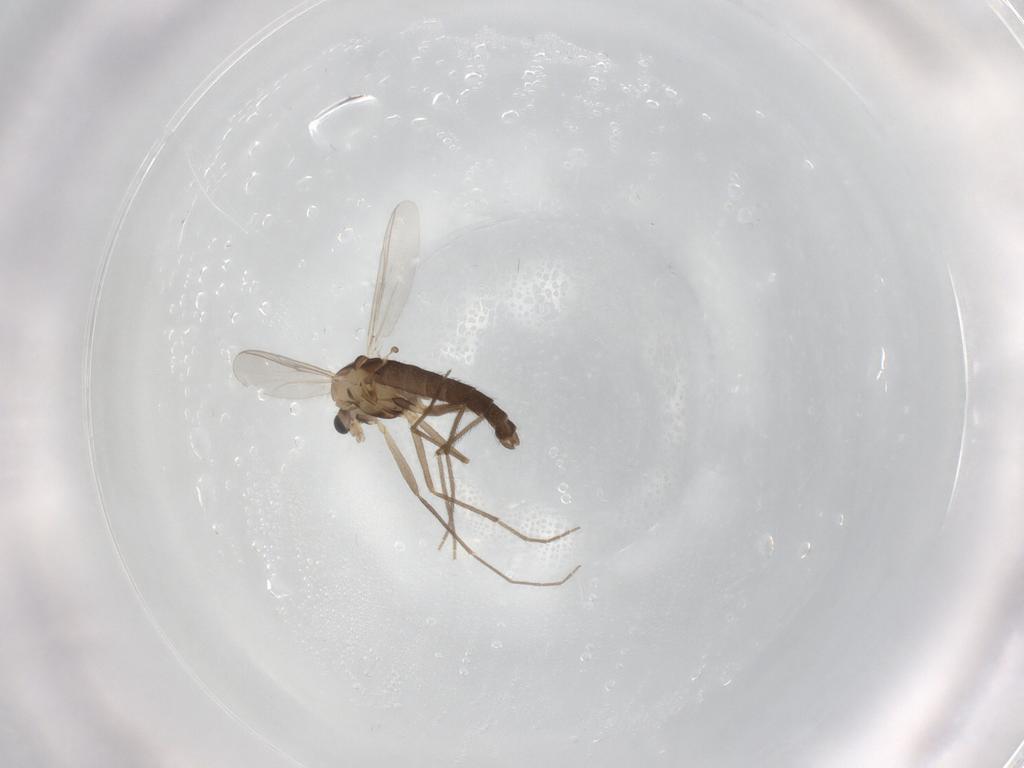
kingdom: Animalia
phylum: Arthropoda
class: Insecta
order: Diptera
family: Chironomidae
